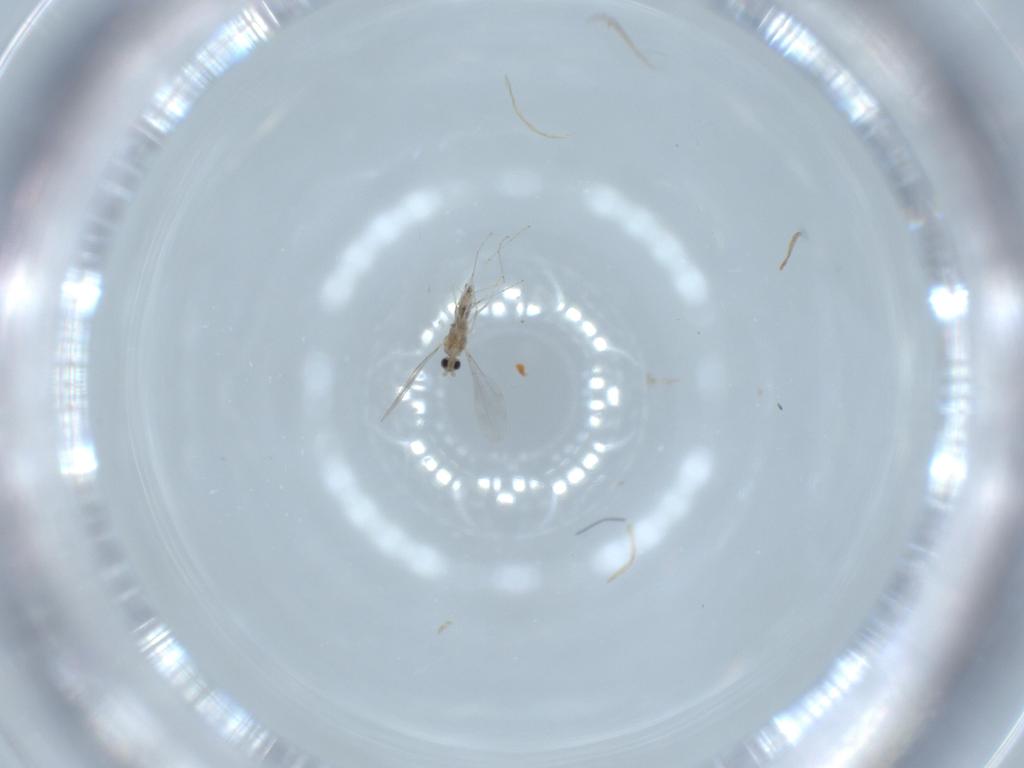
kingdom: Animalia
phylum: Arthropoda
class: Insecta
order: Diptera
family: Cecidomyiidae
